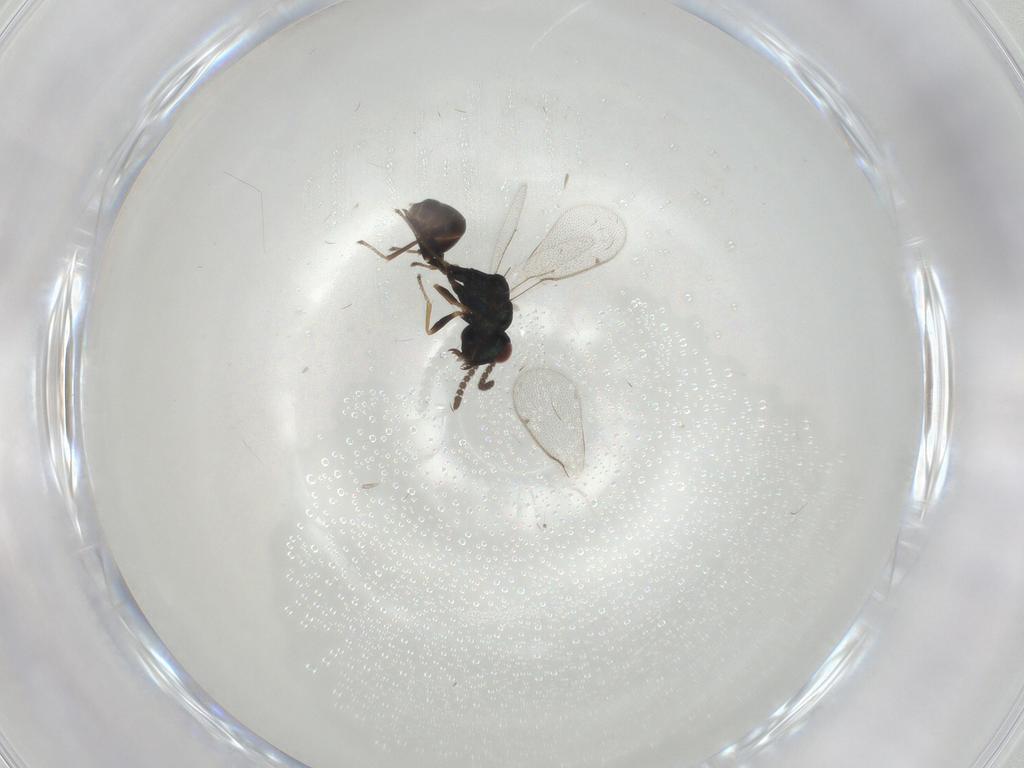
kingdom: Animalia
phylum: Arthropoda
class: Insecta
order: Hymenoptera
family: Eucharitidae
